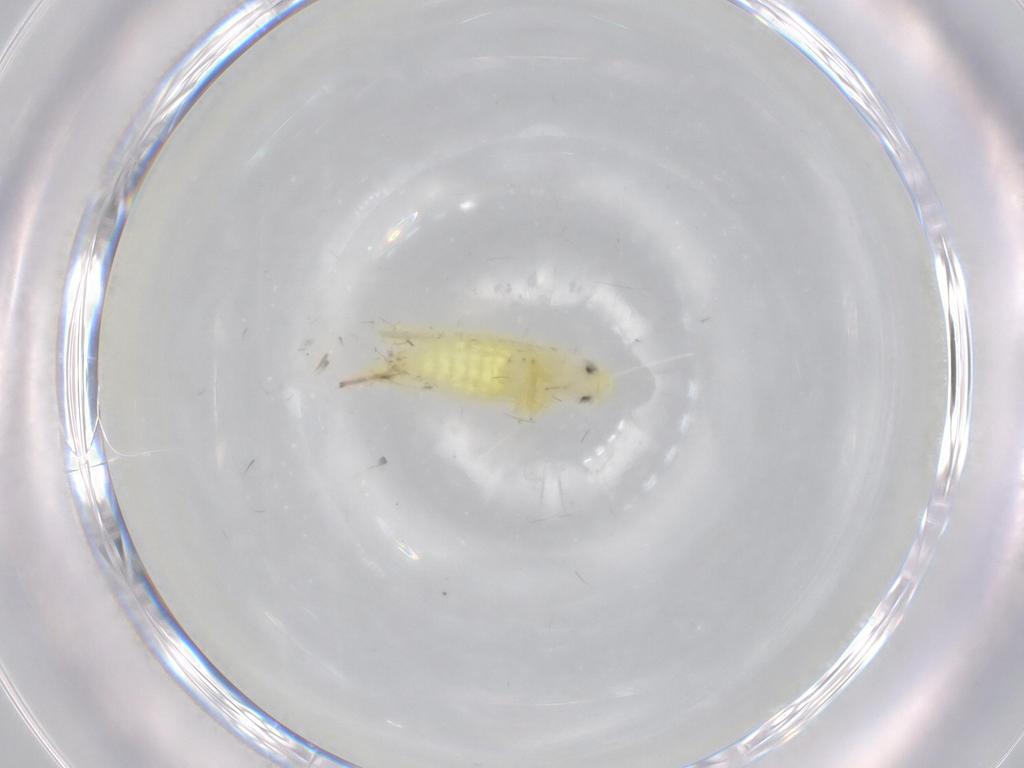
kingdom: Animalia
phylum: Arthropoda
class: Insecta
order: Hemiptera
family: Cicadellidae
